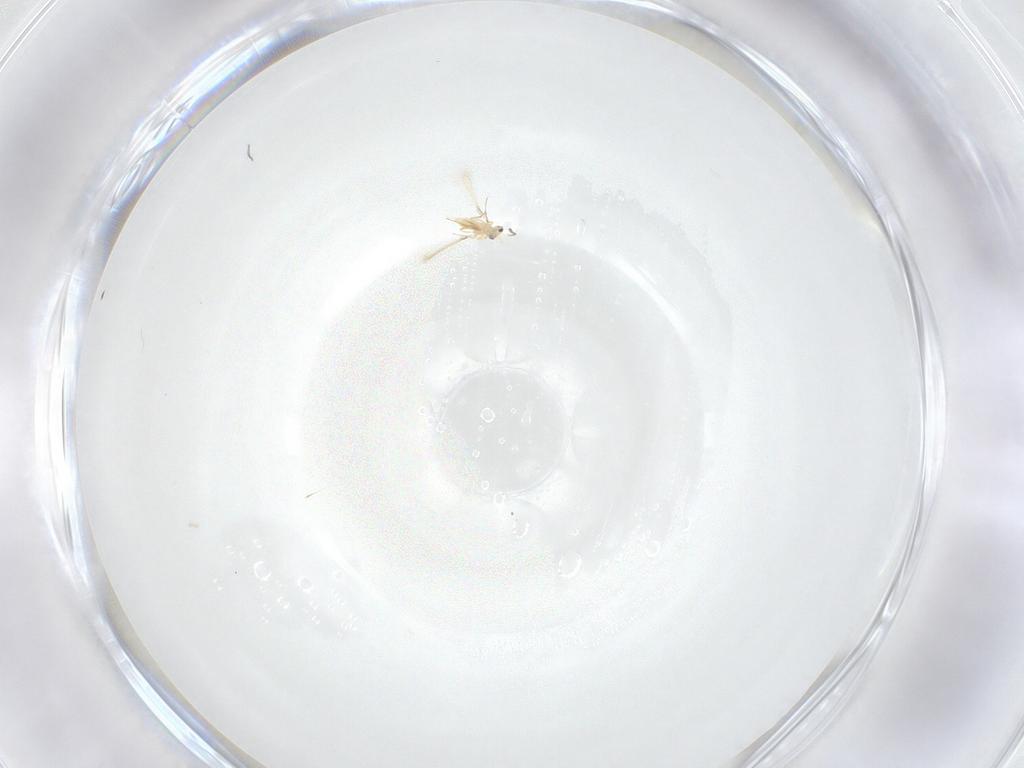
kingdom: Animalia
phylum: Arthropoda
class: Insecta
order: Hymenoptera
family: Mymaridae
